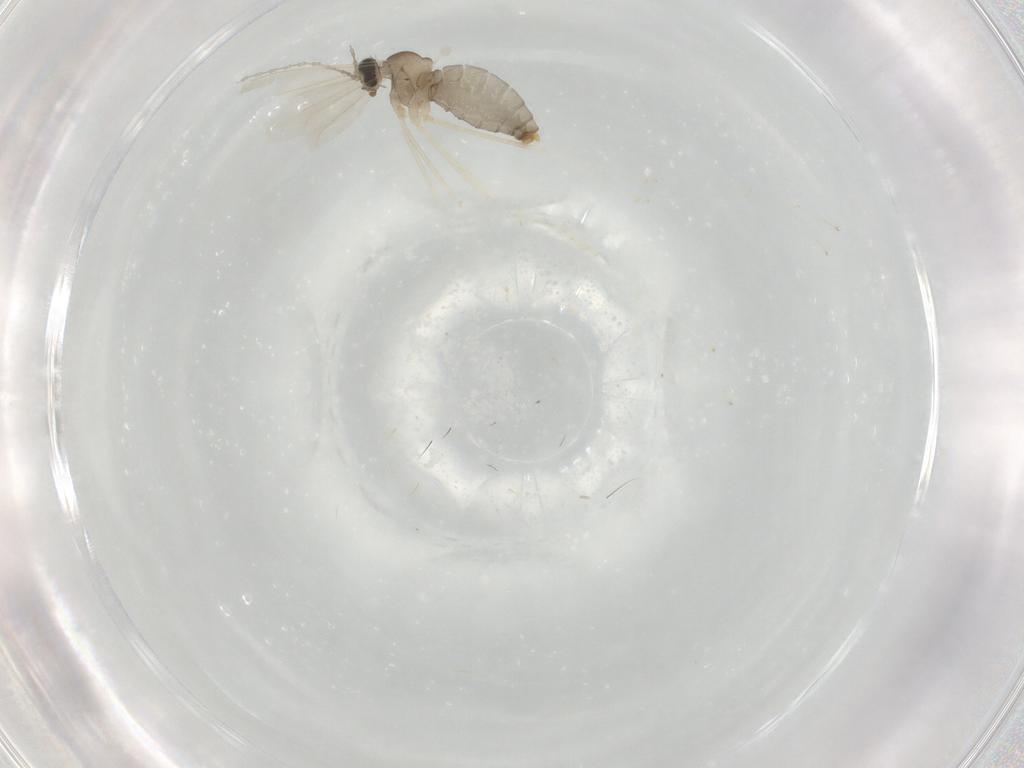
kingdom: Animalia
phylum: Arthropoda
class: Insecta
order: Diptera
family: Cecidomyiidae
